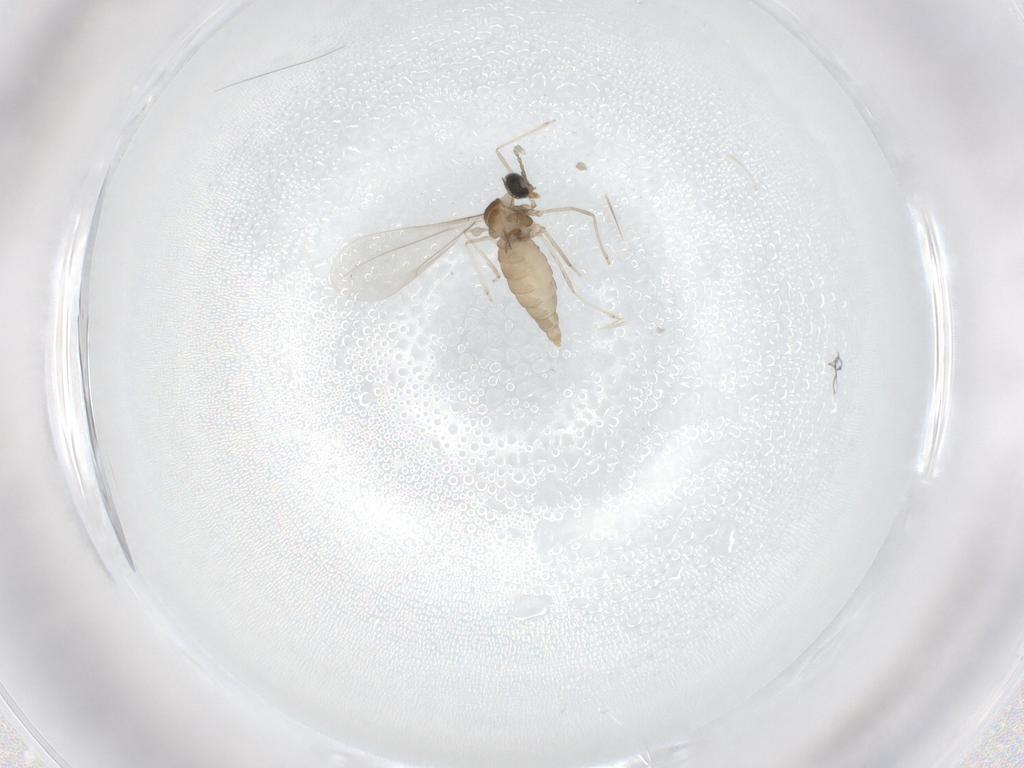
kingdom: Animalia
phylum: Arthropoda
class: Insecta
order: Diptera
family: Cecidomyiidae
